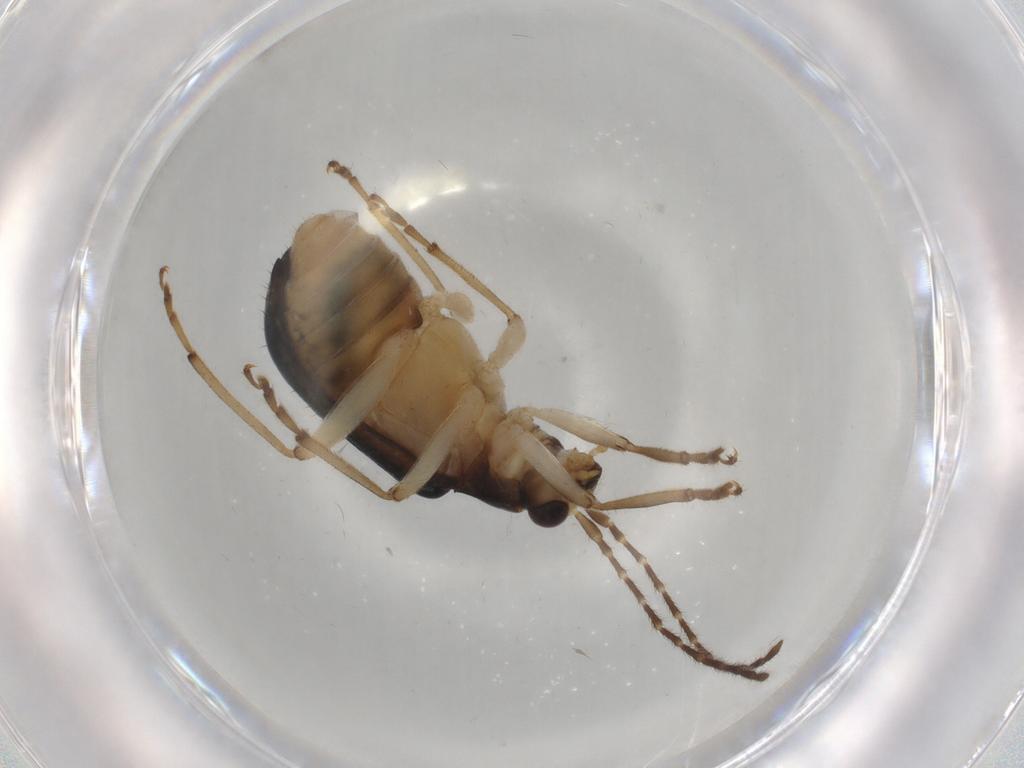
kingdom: Animalia
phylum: Arthropoda
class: Insecta
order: Coleoptera
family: Chrysomelidae
